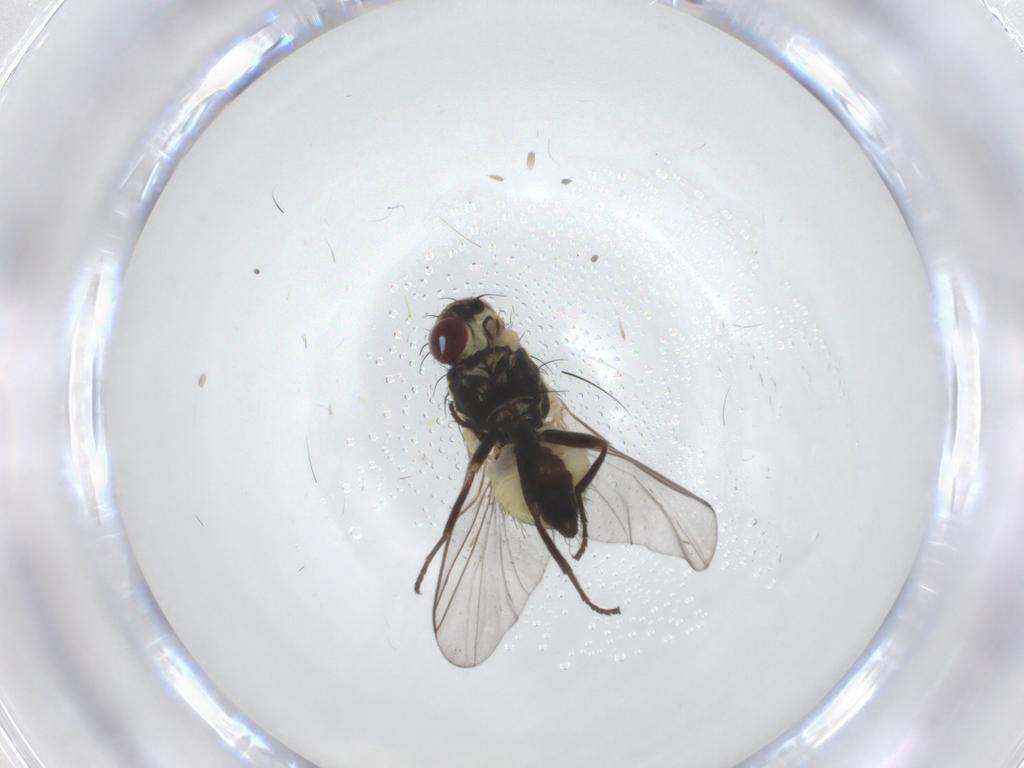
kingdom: Animalia
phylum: Arthropoda
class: Insecta
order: Diptera
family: Agromyzidae
